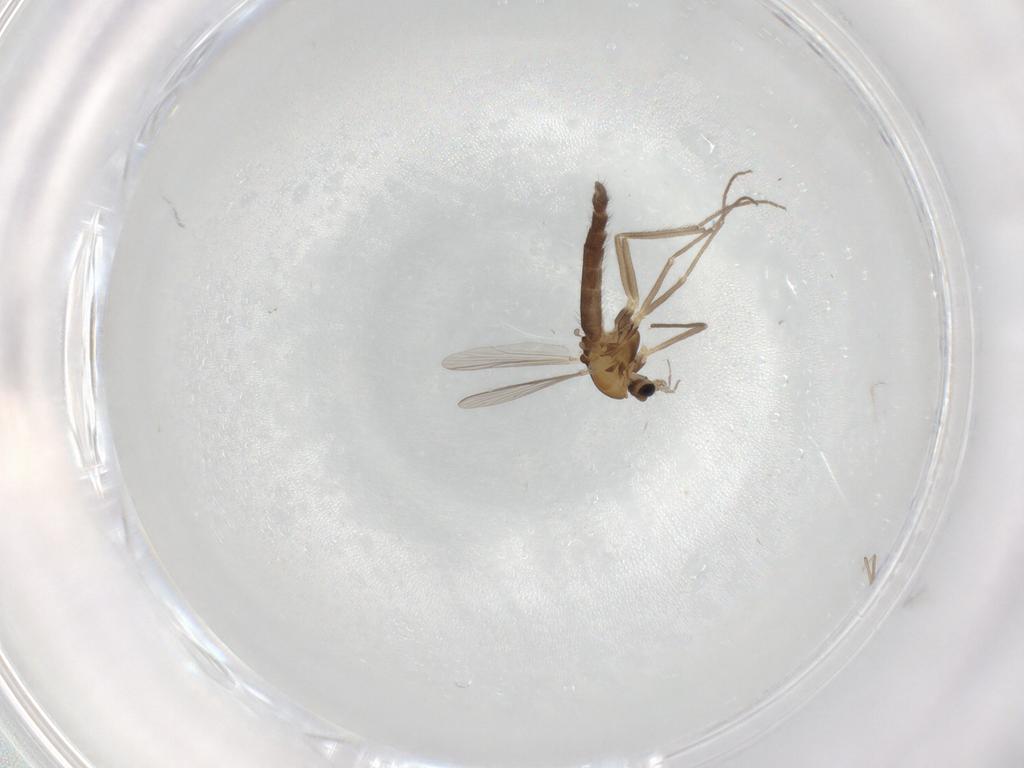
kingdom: Animalia
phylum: Arthropoda
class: Insecta
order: Diptera
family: Chironomidae
